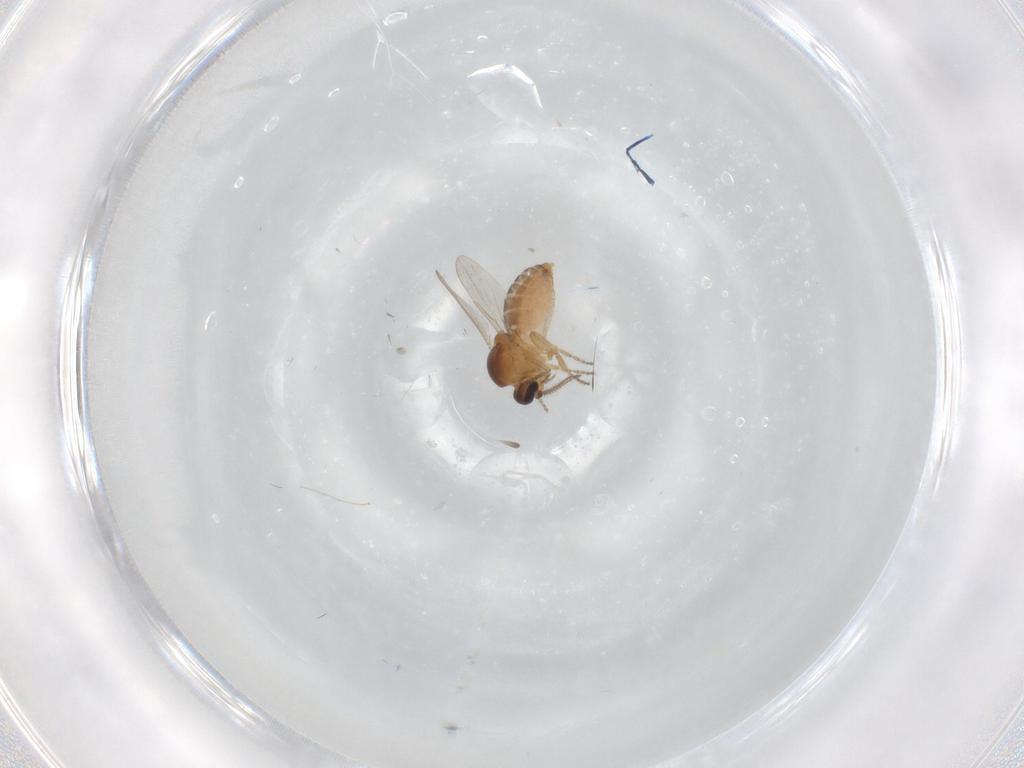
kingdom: Animalia
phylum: Arthropoda
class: Insecta
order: Diptera
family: Ceratopogonidae
